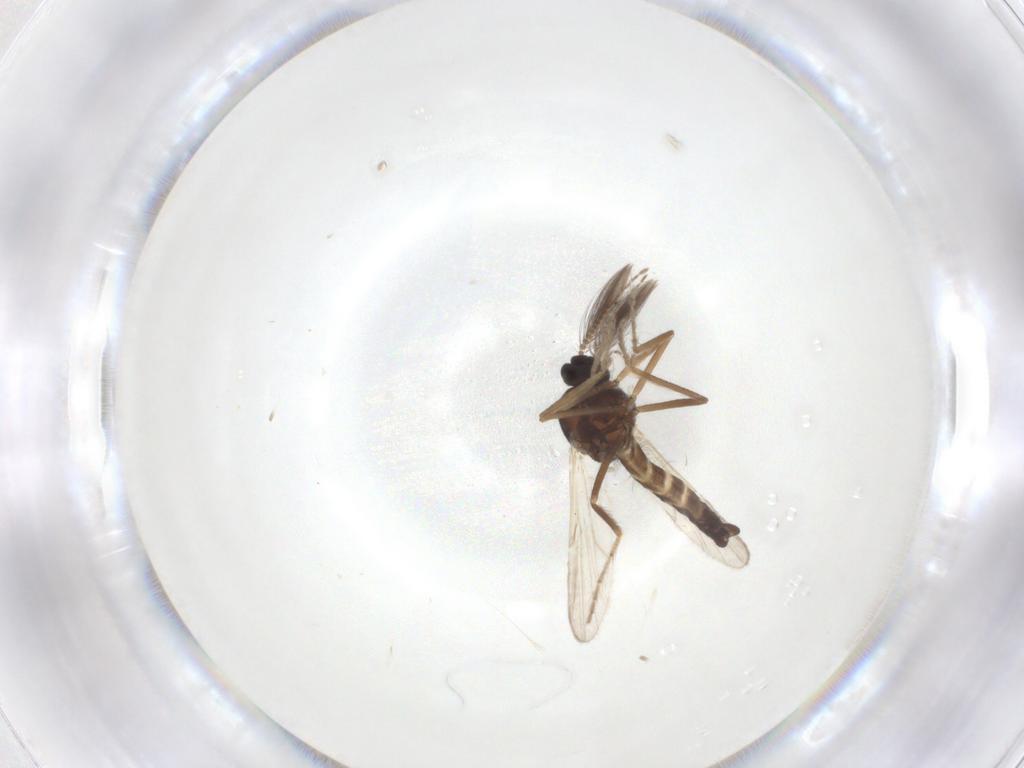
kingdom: Animalia
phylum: Arthropoda
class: Insecta
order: Diptera
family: Ceratopogonidae
